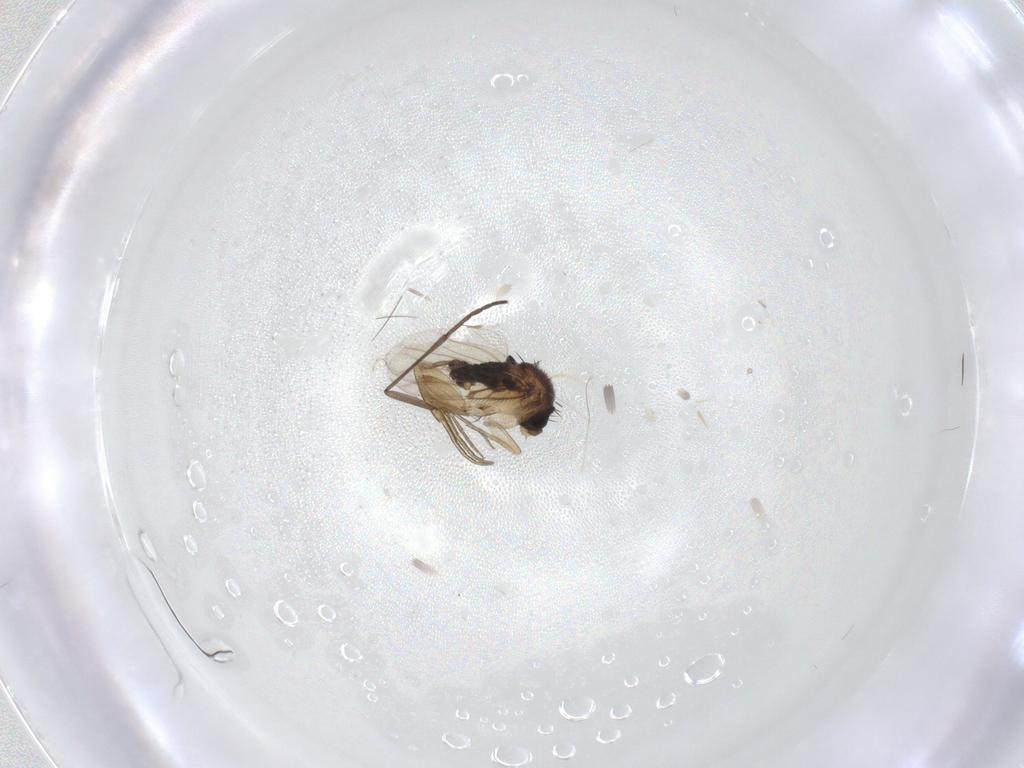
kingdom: Animalia
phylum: Arthropoda
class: Insecta
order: Diptera
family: Sciaridae
